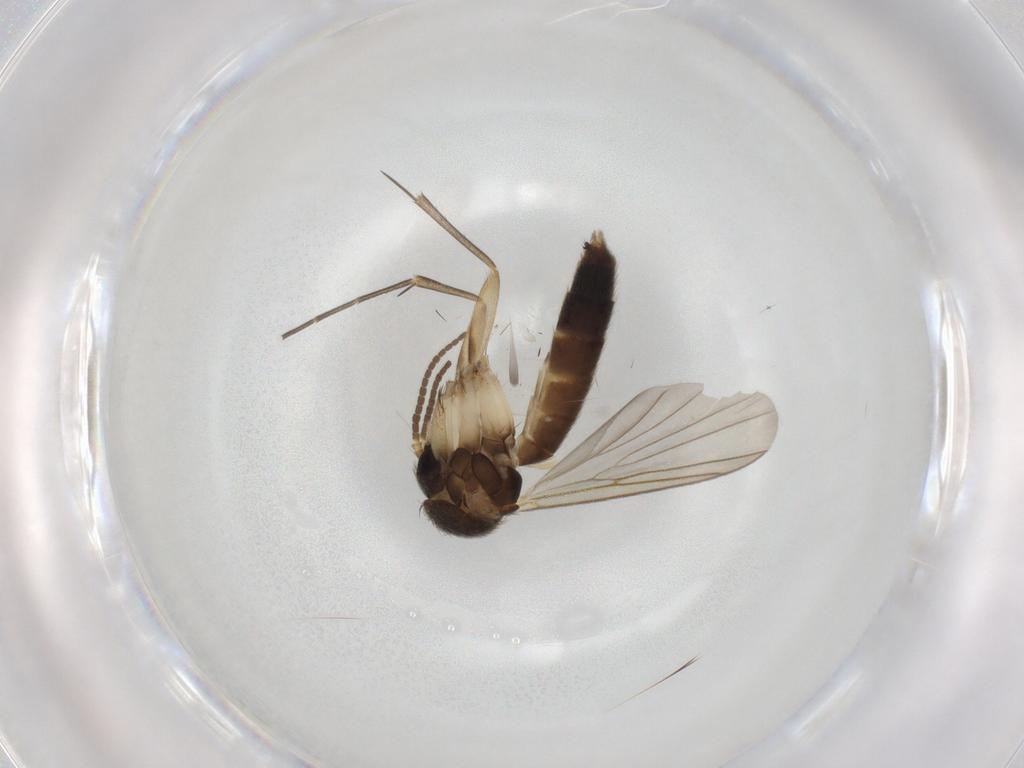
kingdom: Animalia
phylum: Arthropoda
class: Insecta
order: Diptera
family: Mycetophilidae
